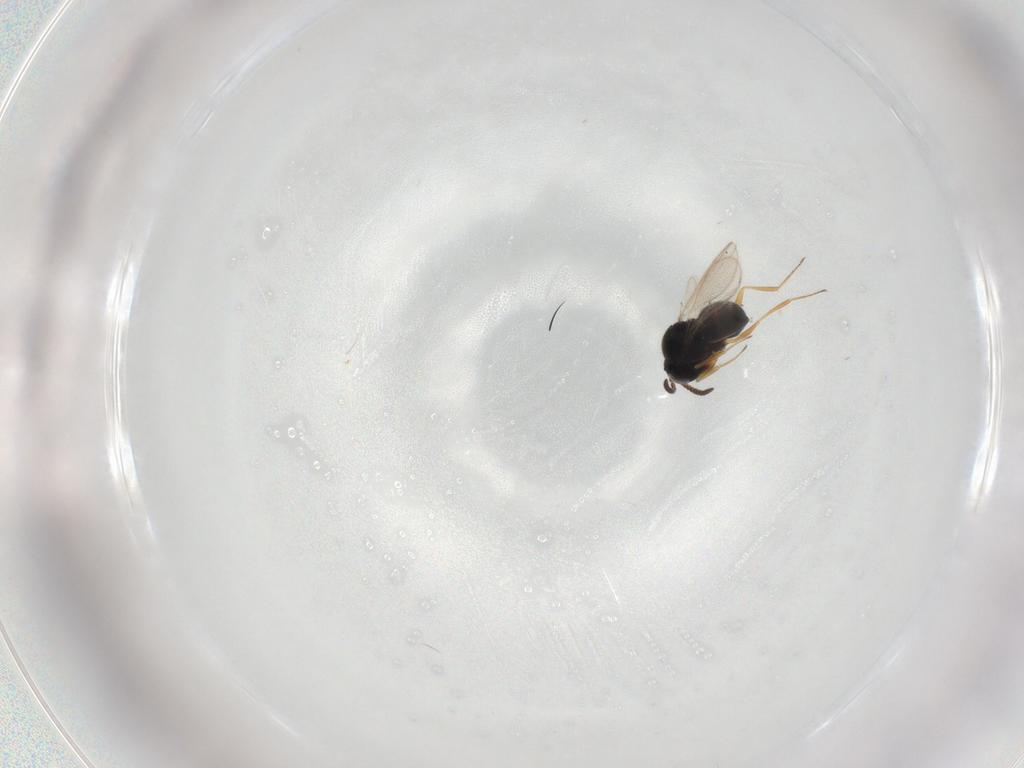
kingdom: Animalia
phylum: Arthropoda
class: Insecta
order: Hymenoptera
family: Scelionidae
